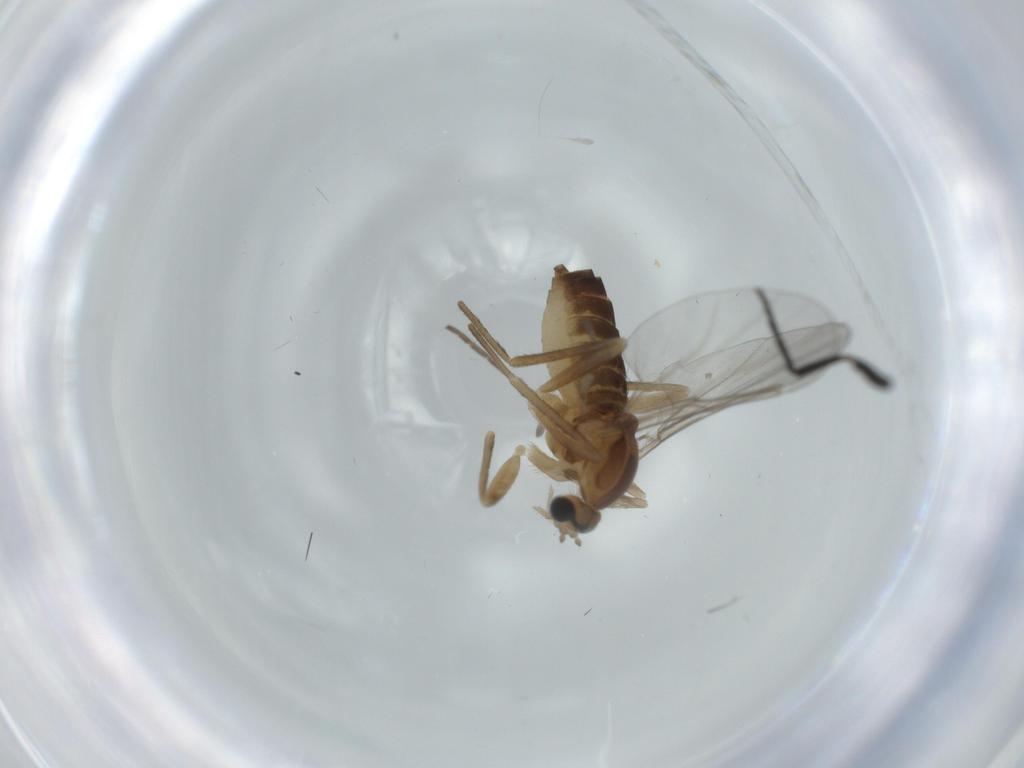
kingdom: Animalia
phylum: Arthropoda
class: Insecta
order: Diptera
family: Cecidomyiidae
